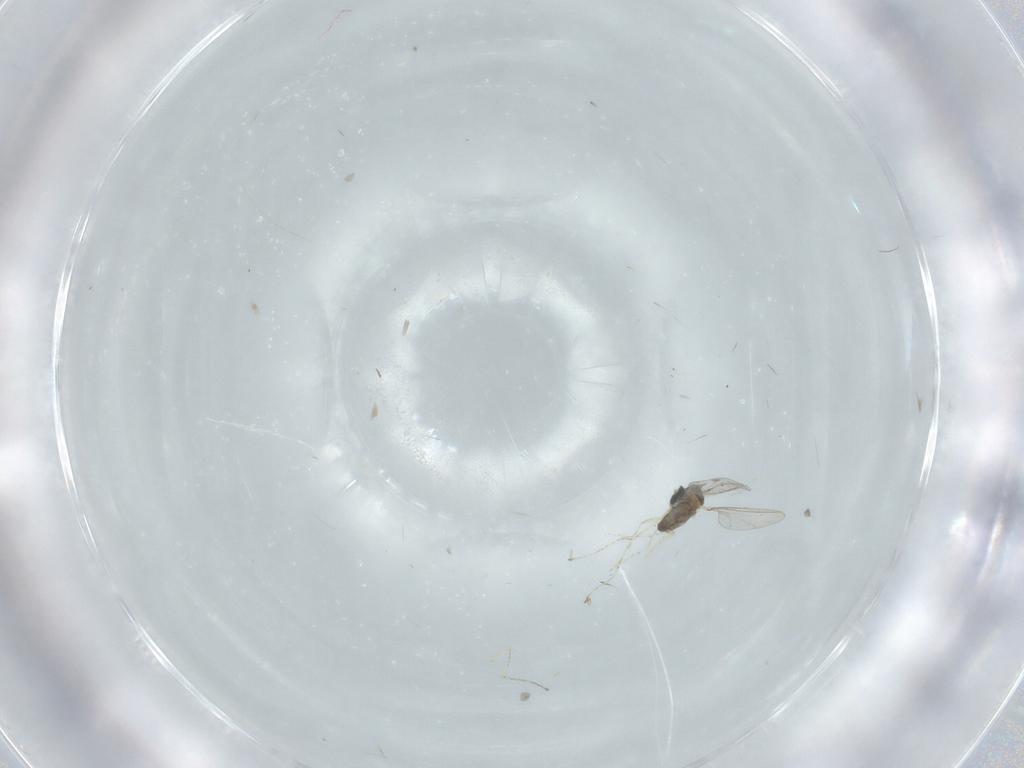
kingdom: Animalia
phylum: Arthropoda
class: Insecta
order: Diptera
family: Cecidomyiidae
